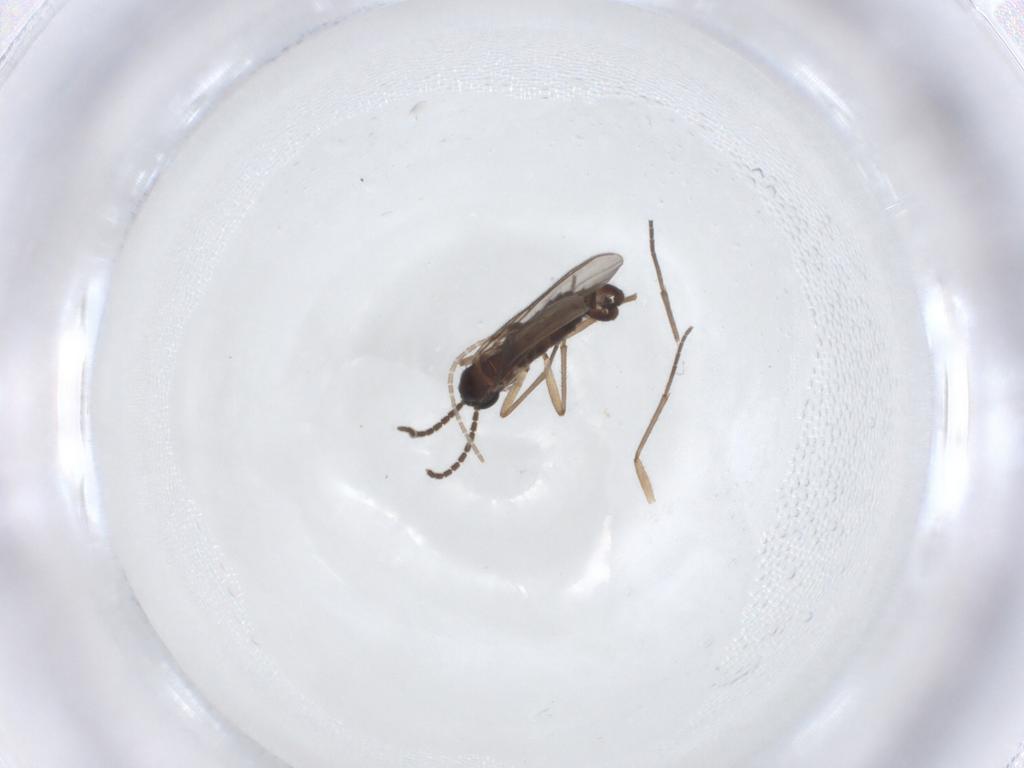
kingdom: Animalia
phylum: Arthropoda
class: Insecta
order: Diptera
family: Sciaridae
